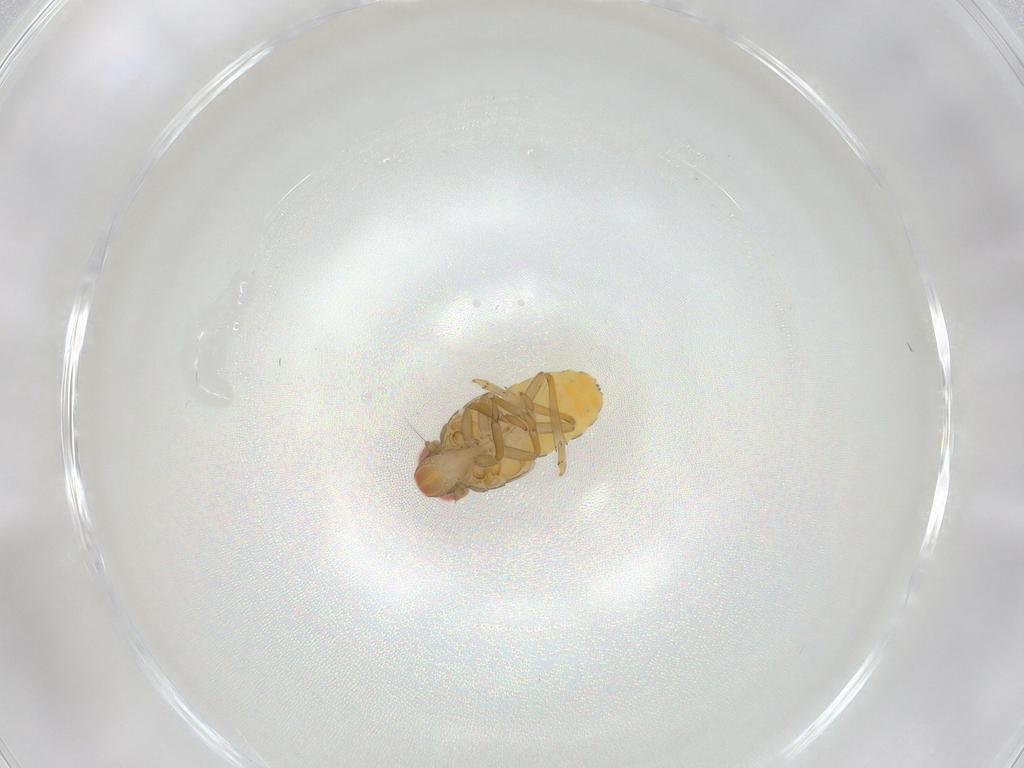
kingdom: Animalia
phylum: Arthropoda
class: Insecta
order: Hemiptera
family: Issidae
